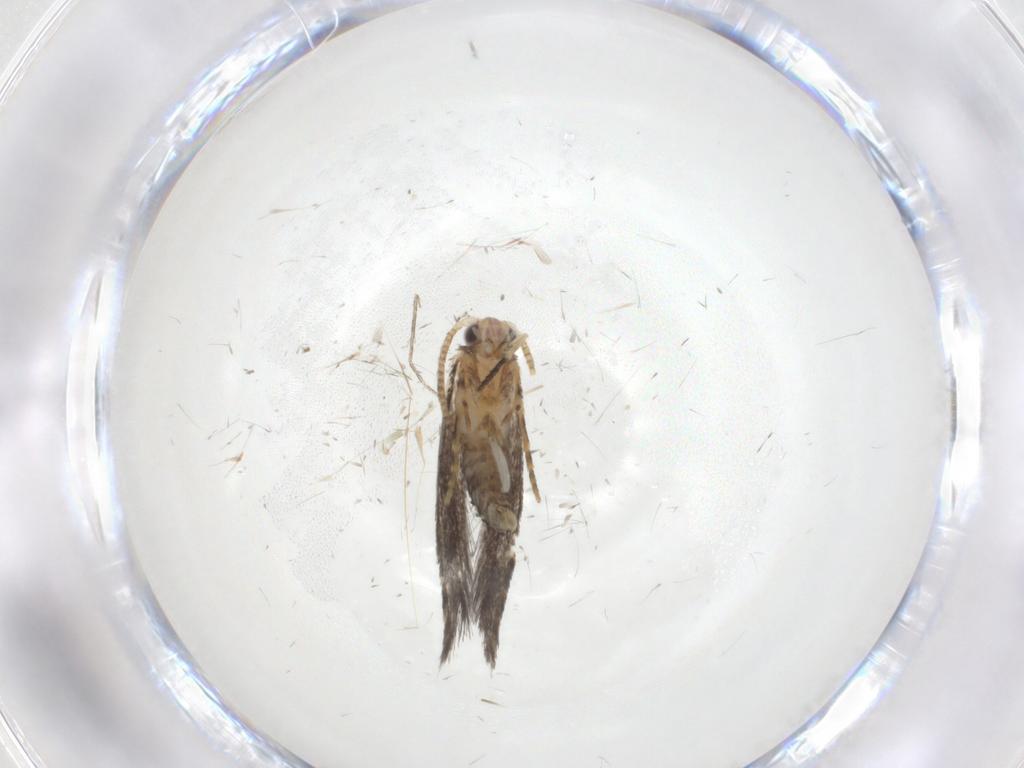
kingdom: Animalia
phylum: Arthropoda
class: Insecta
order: Lepidoptera
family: Tineidae
